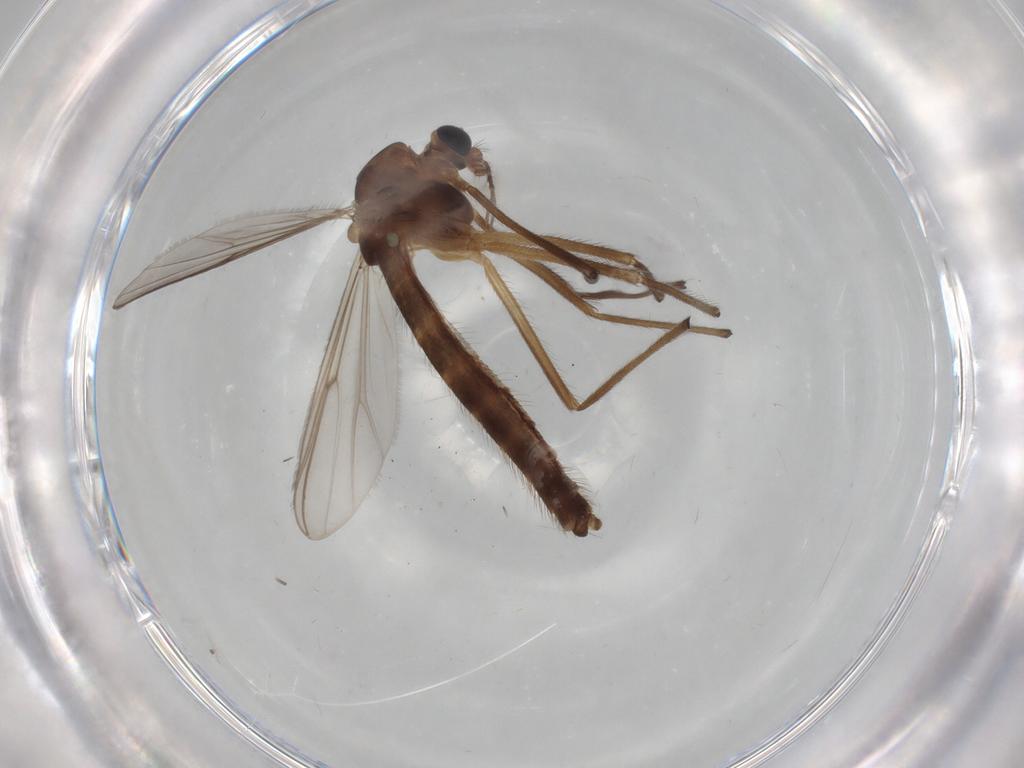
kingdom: Animalia
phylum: Arthropoda
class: Insecta
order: Diptera
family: Chironomidae
